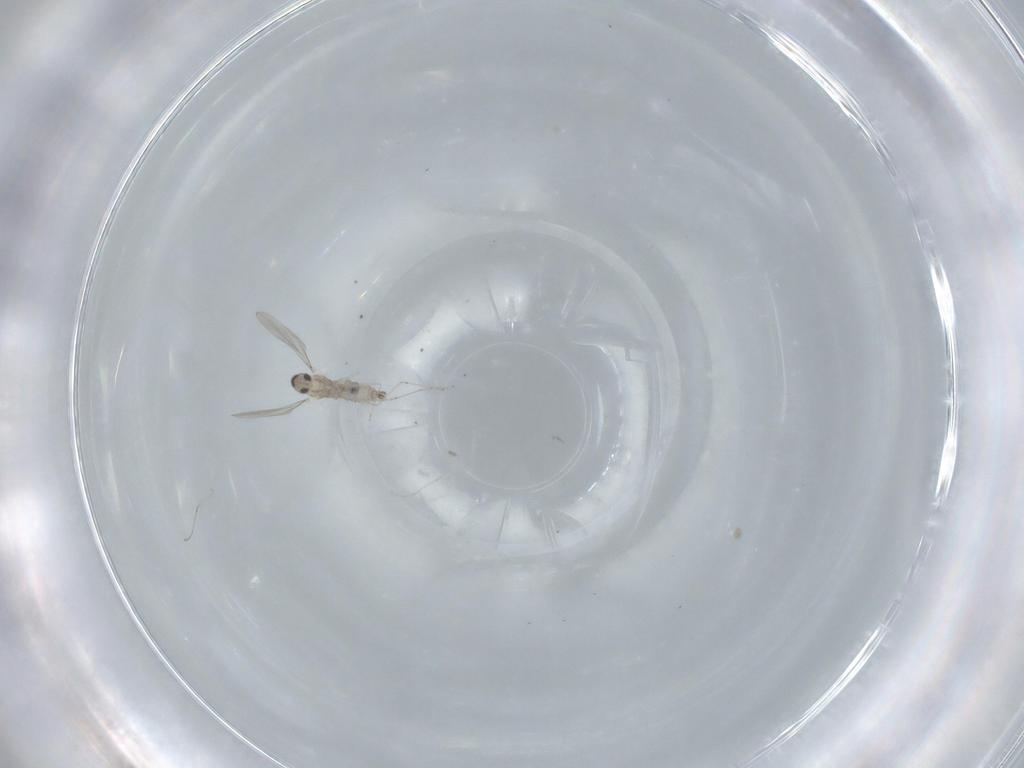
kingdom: Animalia
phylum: Arthropoda
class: Insecta
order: Diptera
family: Cecidomyiidae
